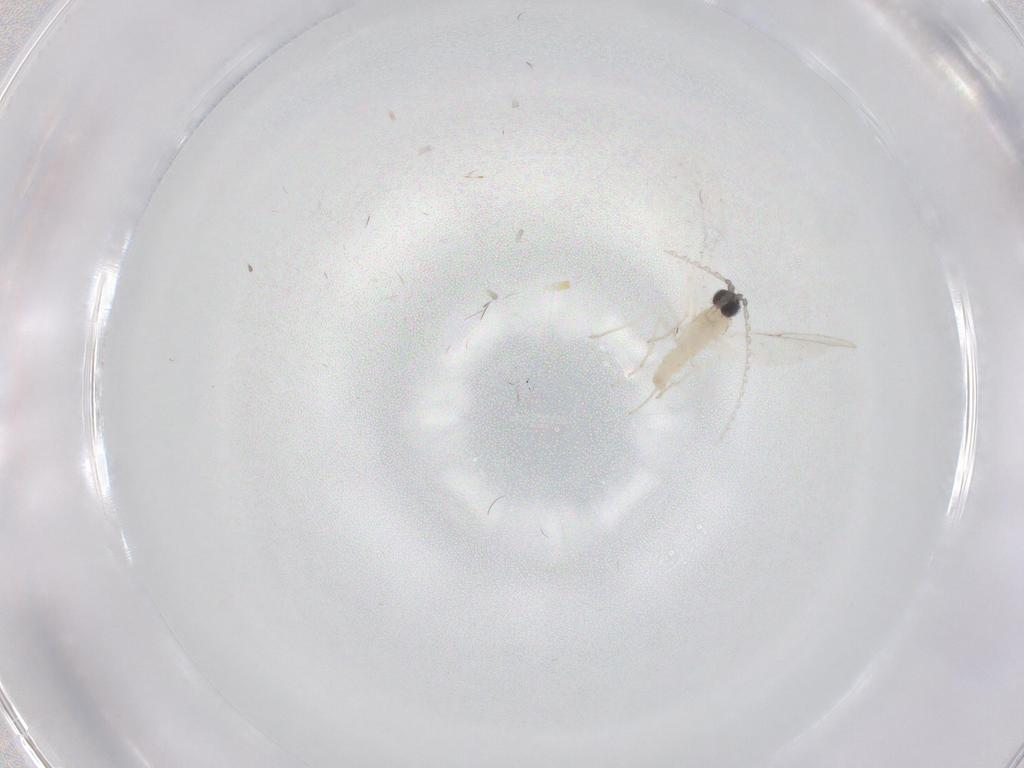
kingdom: Animalia
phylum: Arthropoda
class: Insecta
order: Diptera
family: Cecidomyiidae
